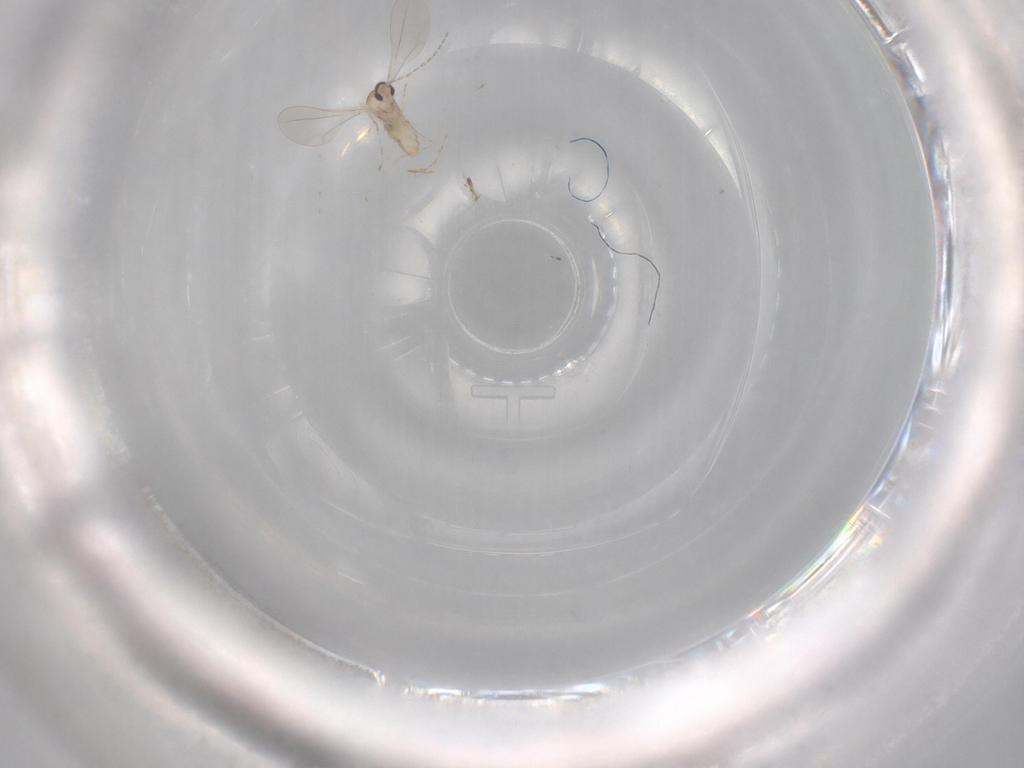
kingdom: Animalia
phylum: Arthropoda
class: Insecta
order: Diptera
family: Cecidomyiidae
